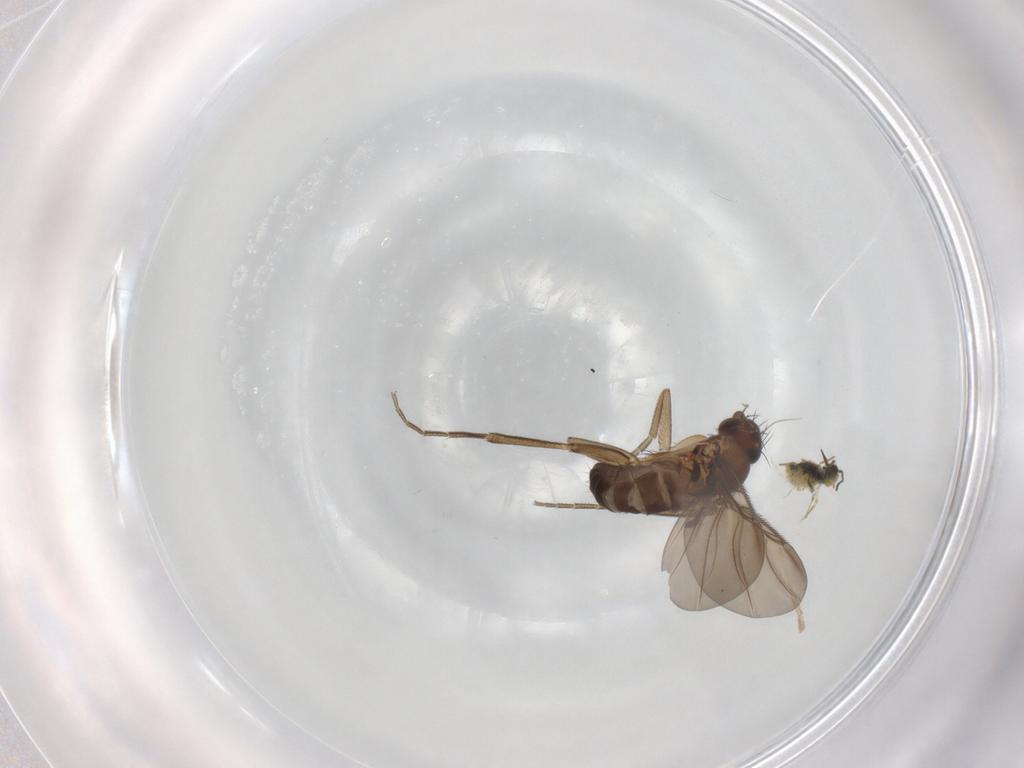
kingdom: Animalia
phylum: Arthropoda
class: Insecta
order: Diptera
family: Phoridae
